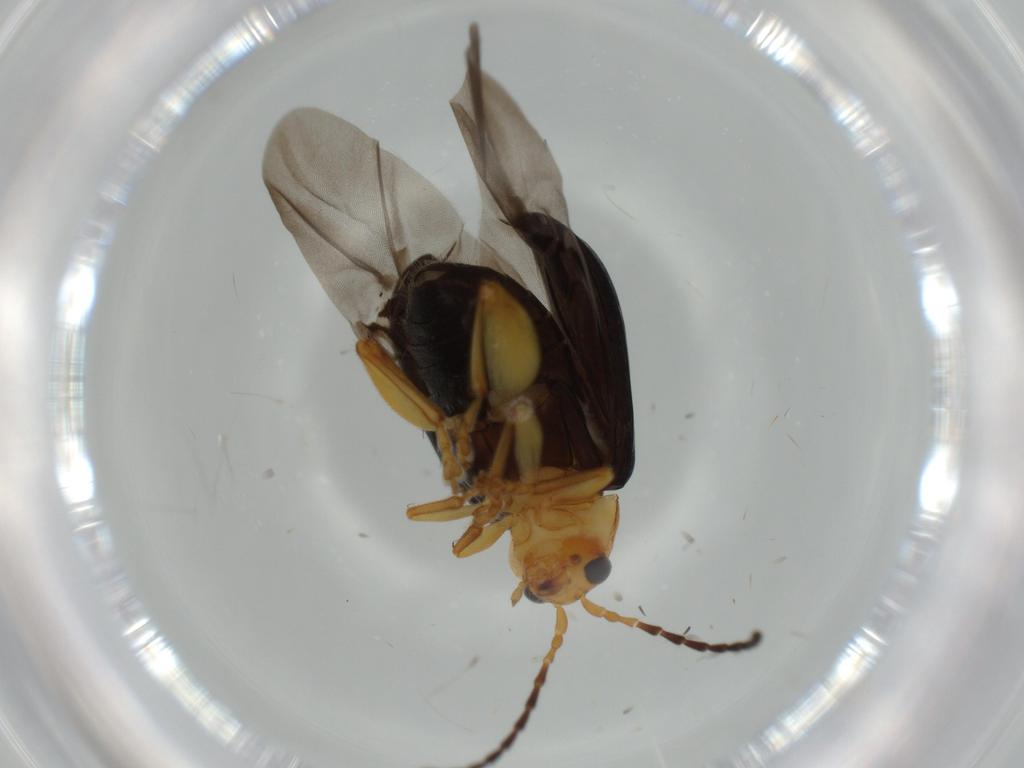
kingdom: Animalia
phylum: Arthropoda
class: Insecta
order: Coleoptera
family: Chrysomelidae
